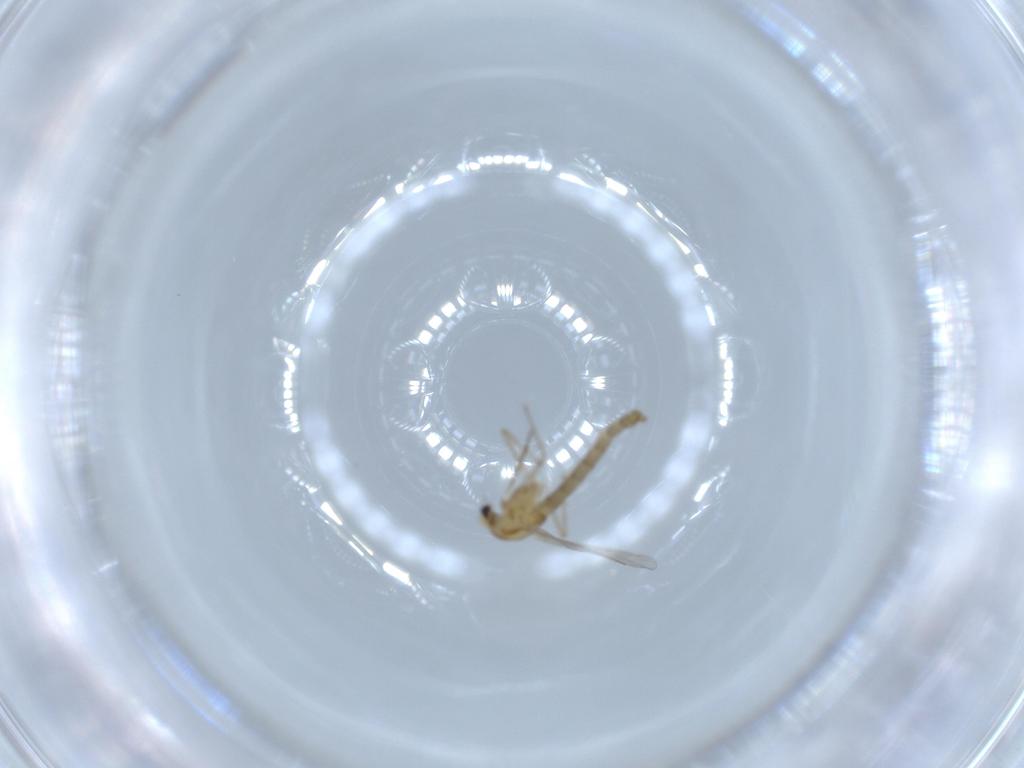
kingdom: Animalia
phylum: Arthropoda
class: Insecta
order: Diptera
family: Chironomidae
